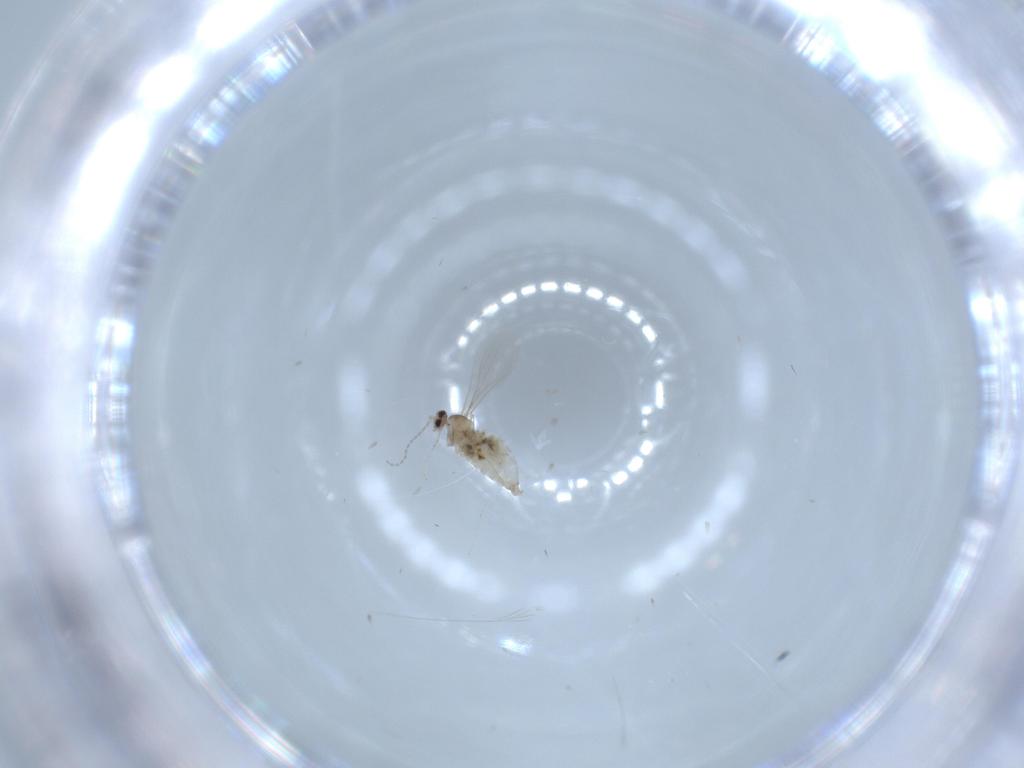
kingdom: Animalia
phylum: Arthropoda
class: Insecta
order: Diptera
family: Cecidomyiidae
